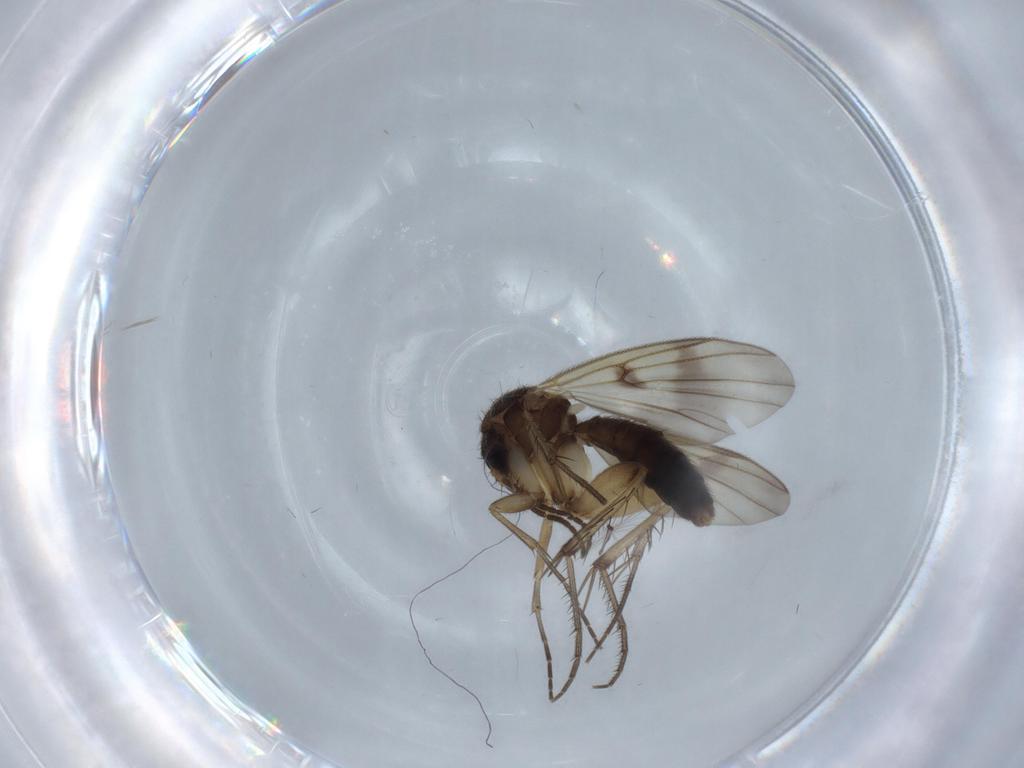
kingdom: Animalia
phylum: Arthropoda
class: Insecta
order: Diptera
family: Chironomidae
